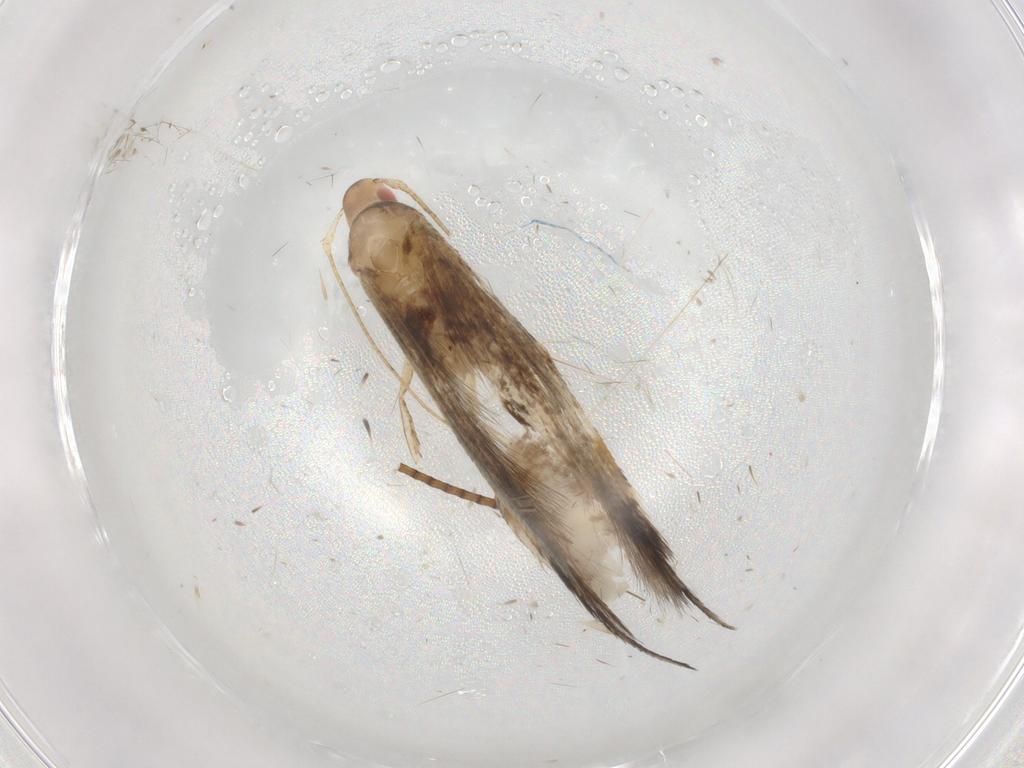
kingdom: Animalia
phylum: Arthropoda
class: Insecta
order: Lepidoptera
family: Cosmopterigidae
